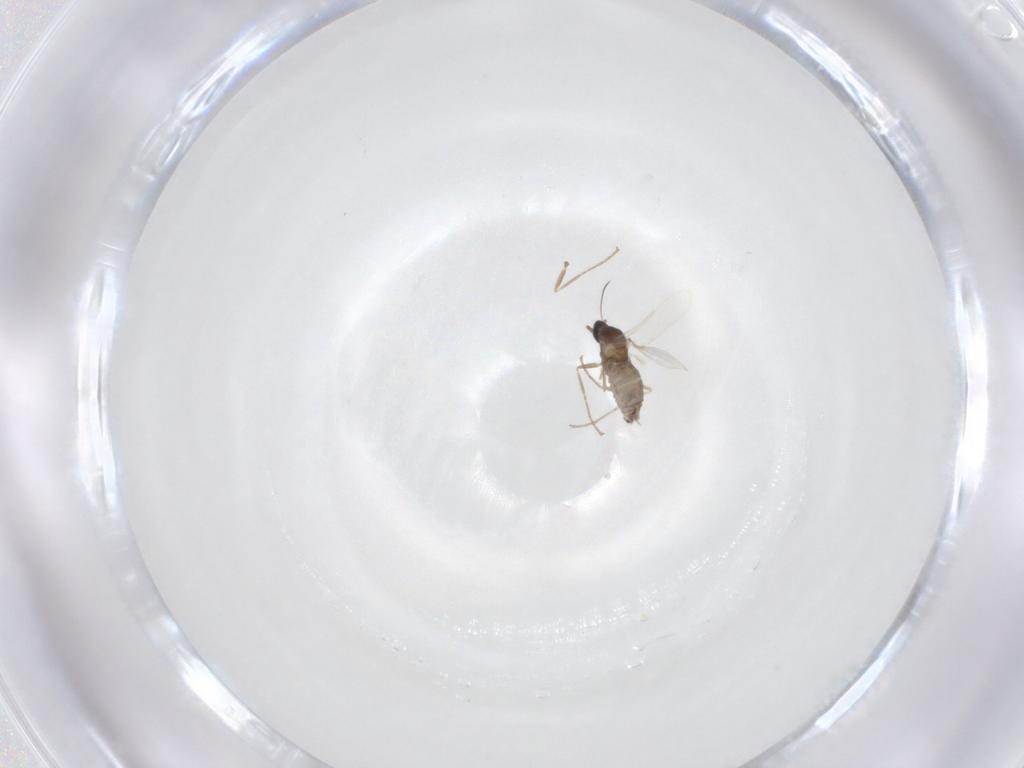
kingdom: Animalia
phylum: Arthropoda
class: Insecta
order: Diptera
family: Cecidomyiidae
